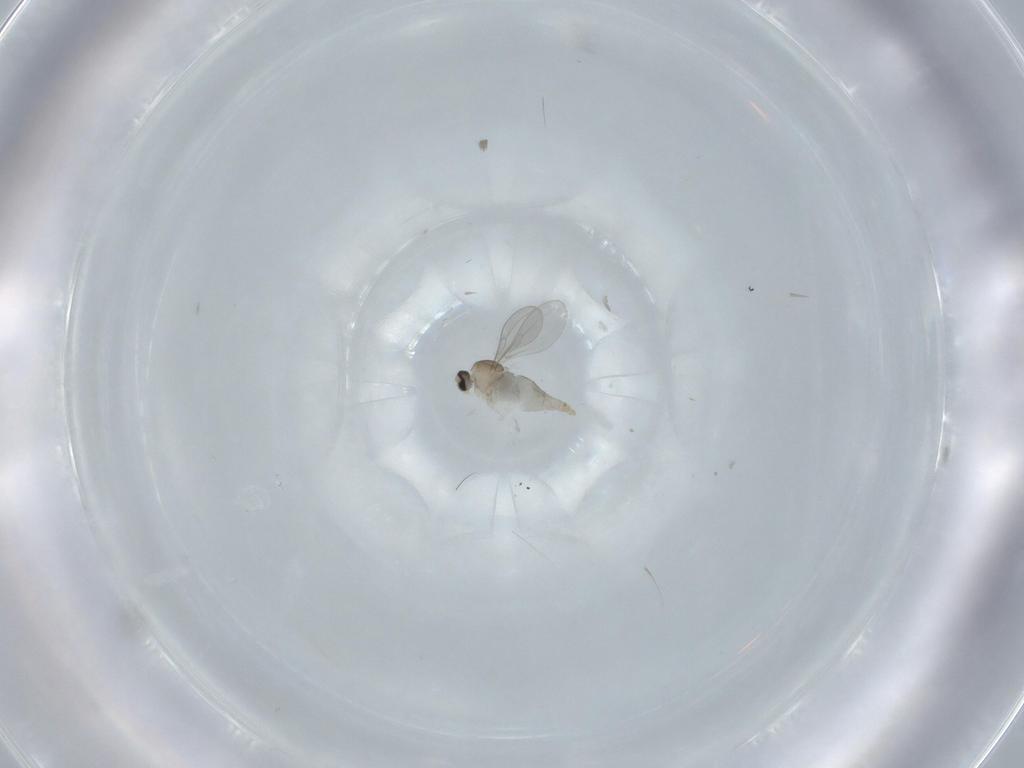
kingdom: Animalia
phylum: Arthropoda
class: Insecta
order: Diptera
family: Cecidomyiidae
